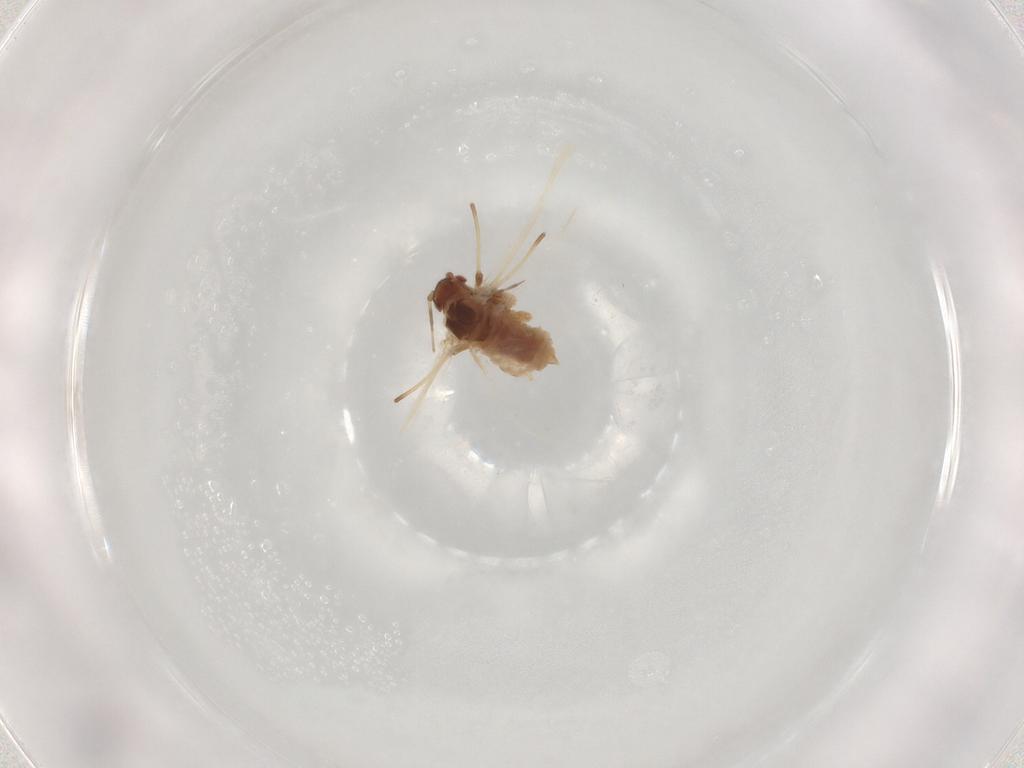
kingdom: Animalia
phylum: Arthropoda
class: Insecta
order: Hemiptera
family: Aphididae
